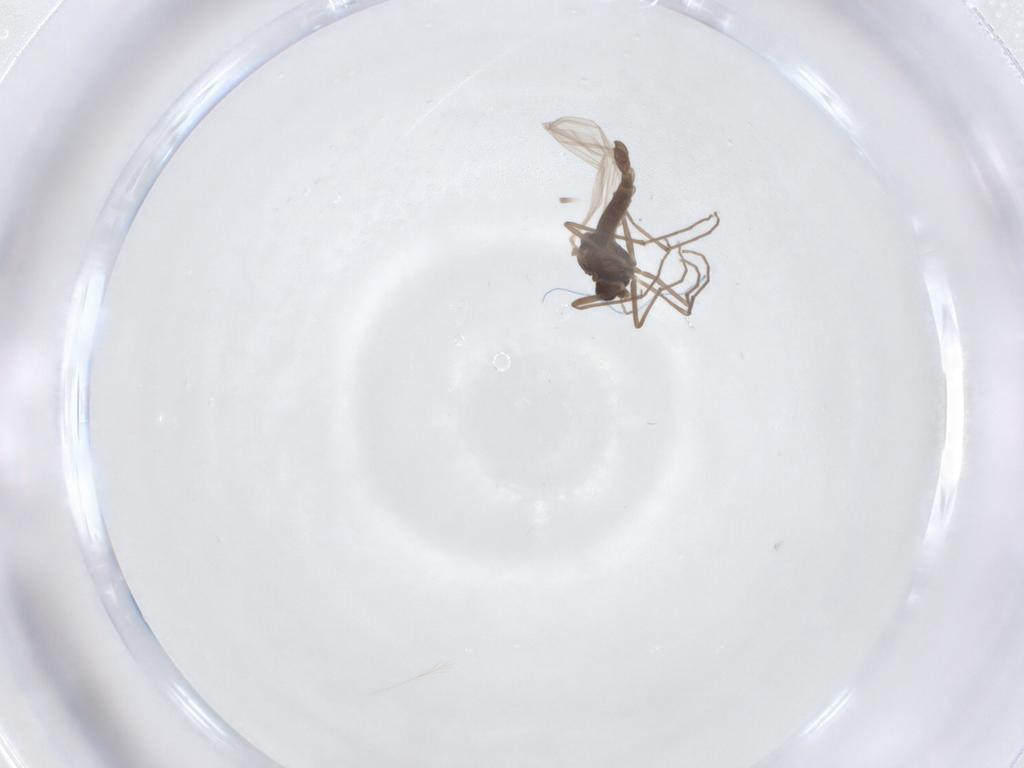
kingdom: Animalia
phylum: Arthropoda
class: Insecta
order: Diptera
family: Chironomidae
